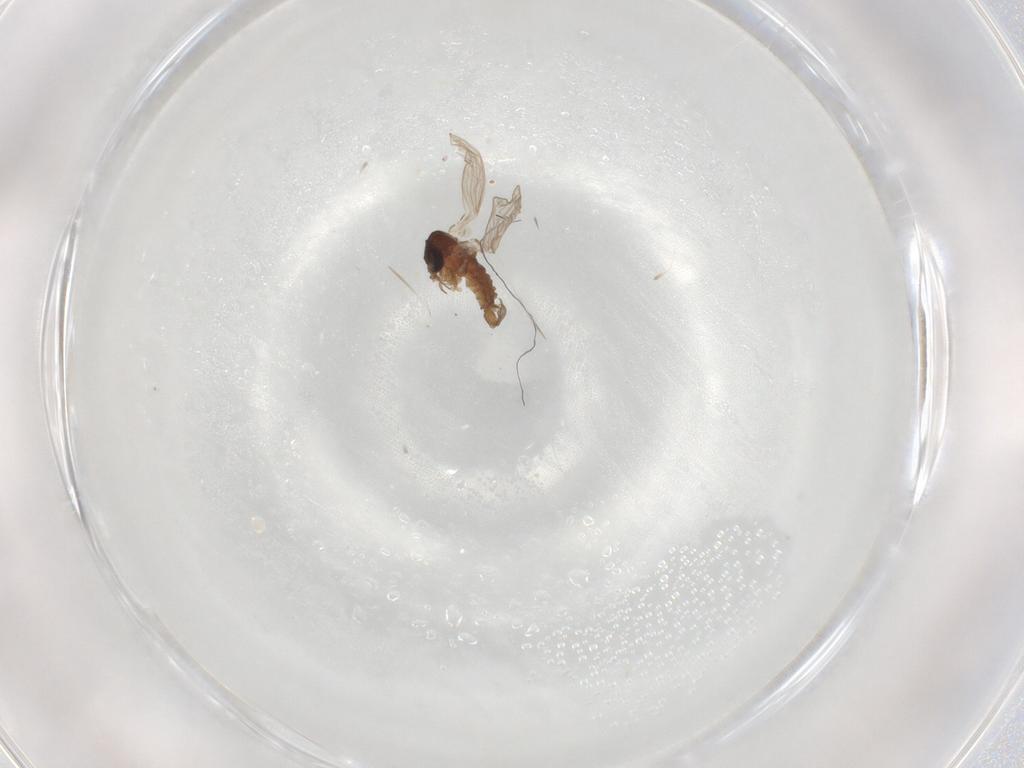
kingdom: Animalia
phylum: Arthropoda
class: Insecta
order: Diptera
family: Psychodidae
